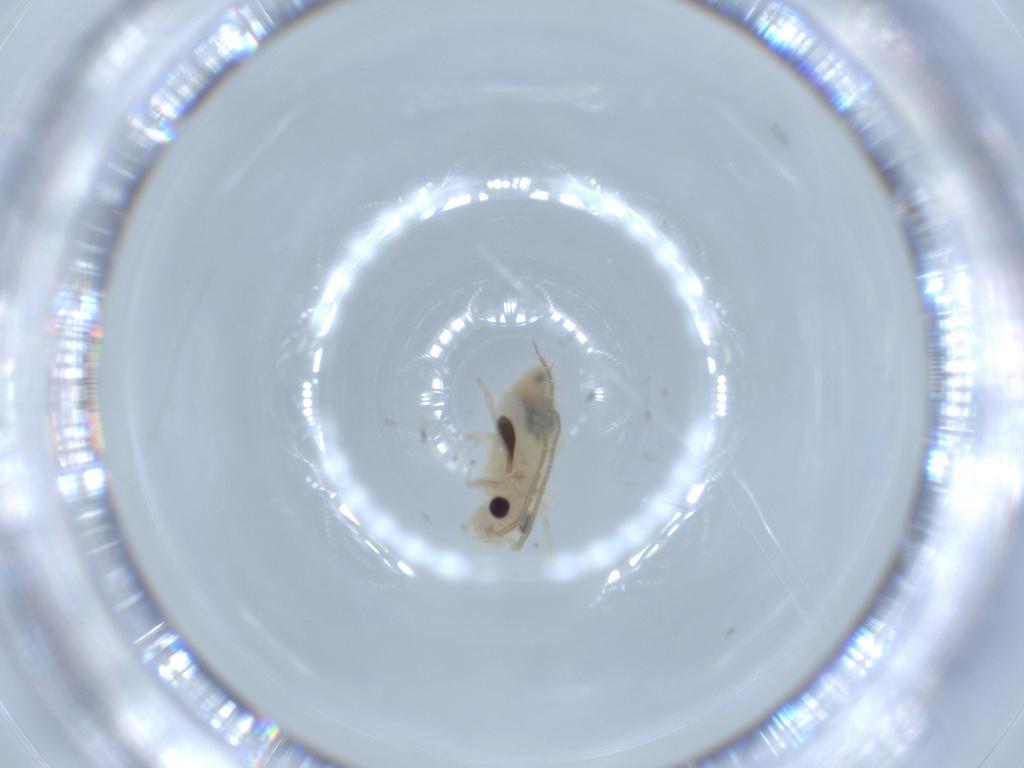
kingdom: Animalia
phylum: Arthropoda
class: Insecta
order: Psocodea
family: Caeciliusidae
